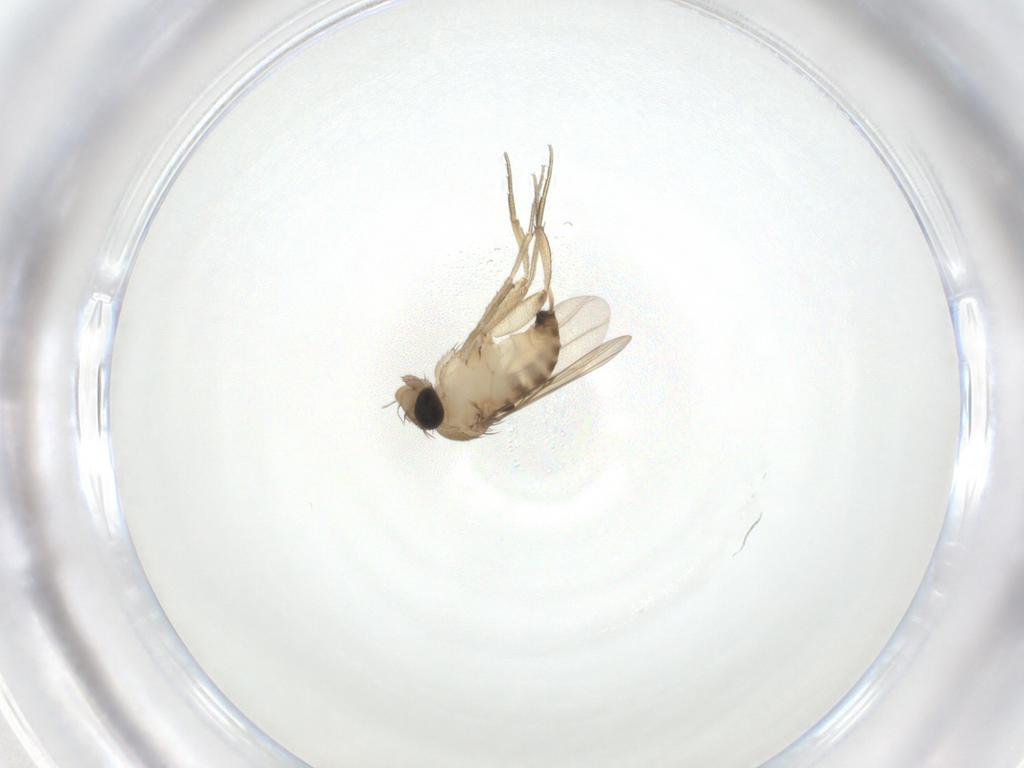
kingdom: Animalia
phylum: Arthropoda
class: Insecta
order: Diptera
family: Phoridae
